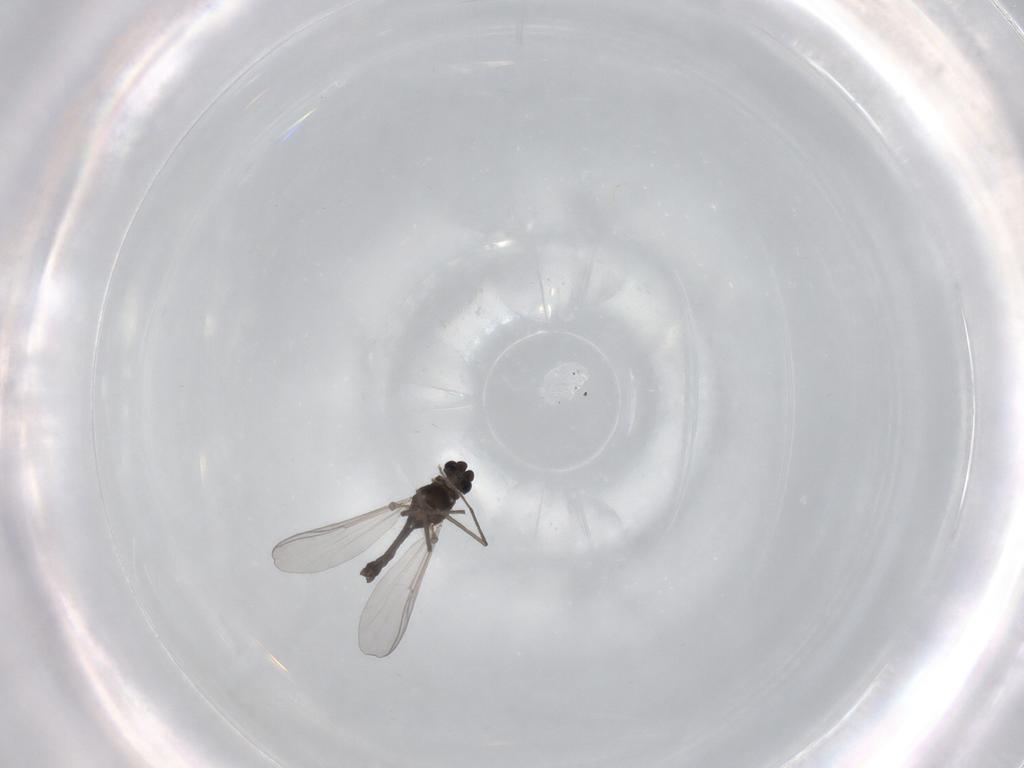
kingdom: Animalia
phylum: Arthropoda
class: Insecta
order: Diptera
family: Chironomidae
